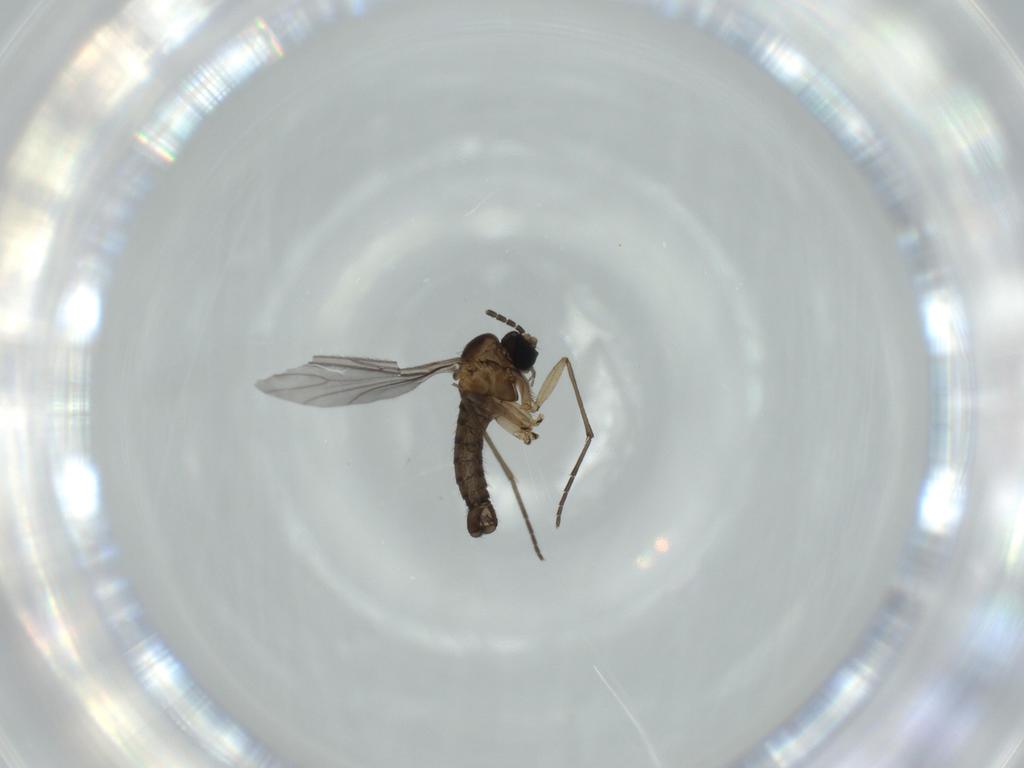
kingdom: Animalia
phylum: Arthropoda
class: Insecta
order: Diptera
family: Sciaridae
